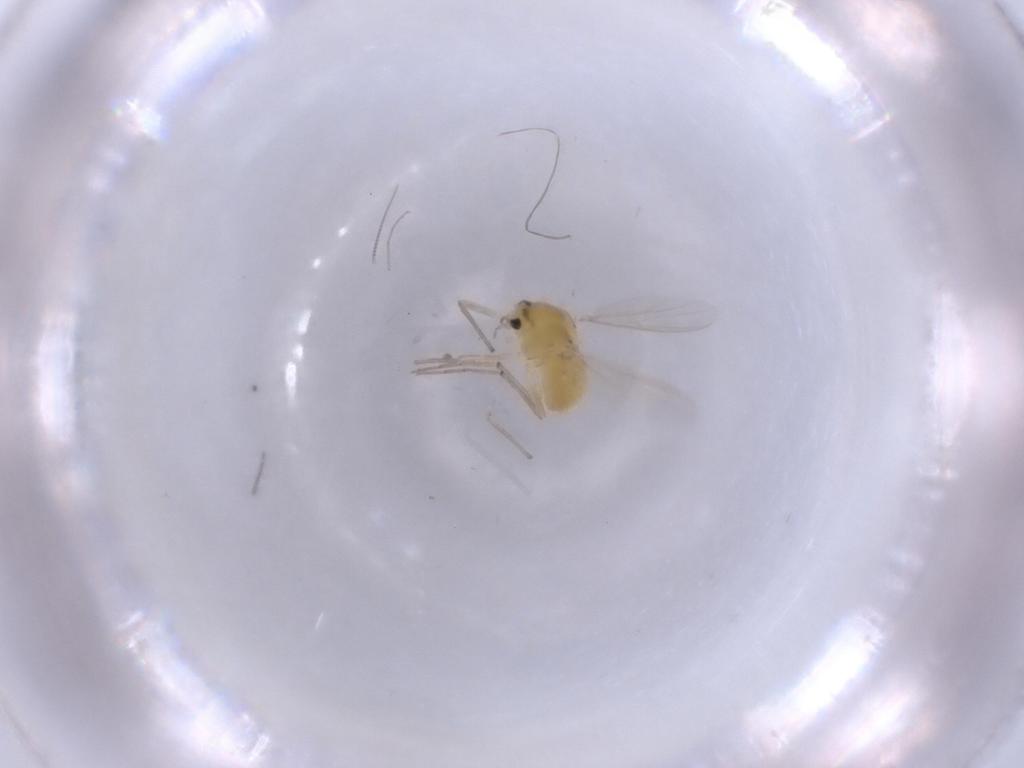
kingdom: Animalia
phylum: Arthropoda
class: Insecta
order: Diptera
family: Chironomidae
